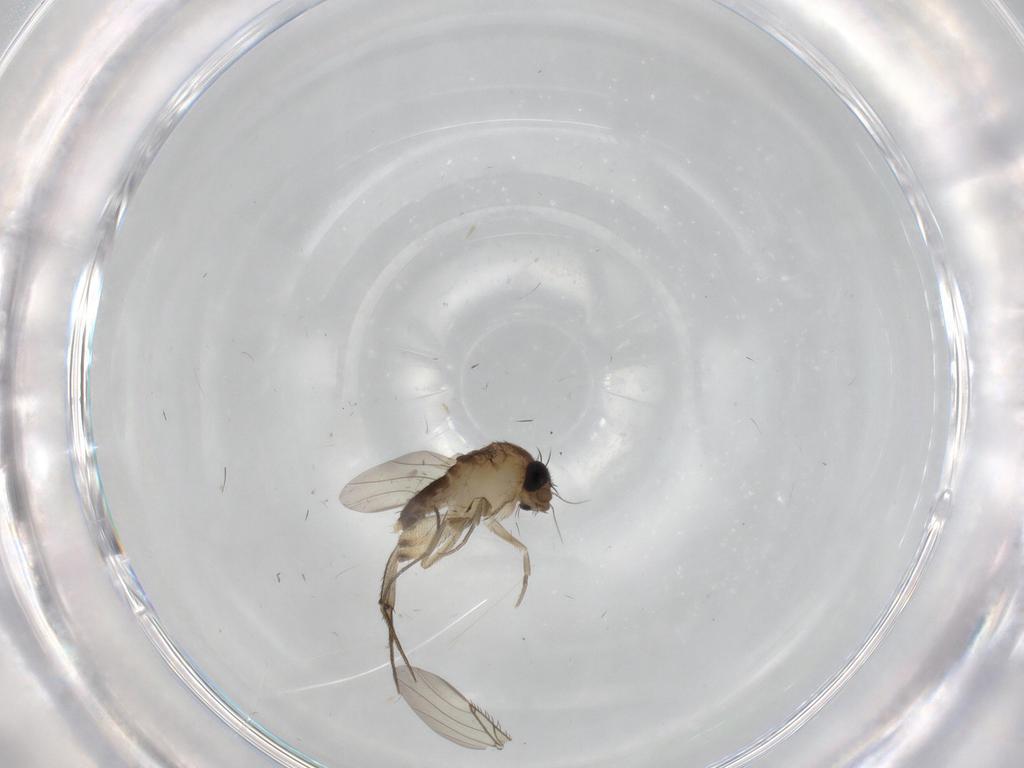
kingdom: Animalia
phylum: Arthropoda
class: Insecta
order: Diptera
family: Phoridae
